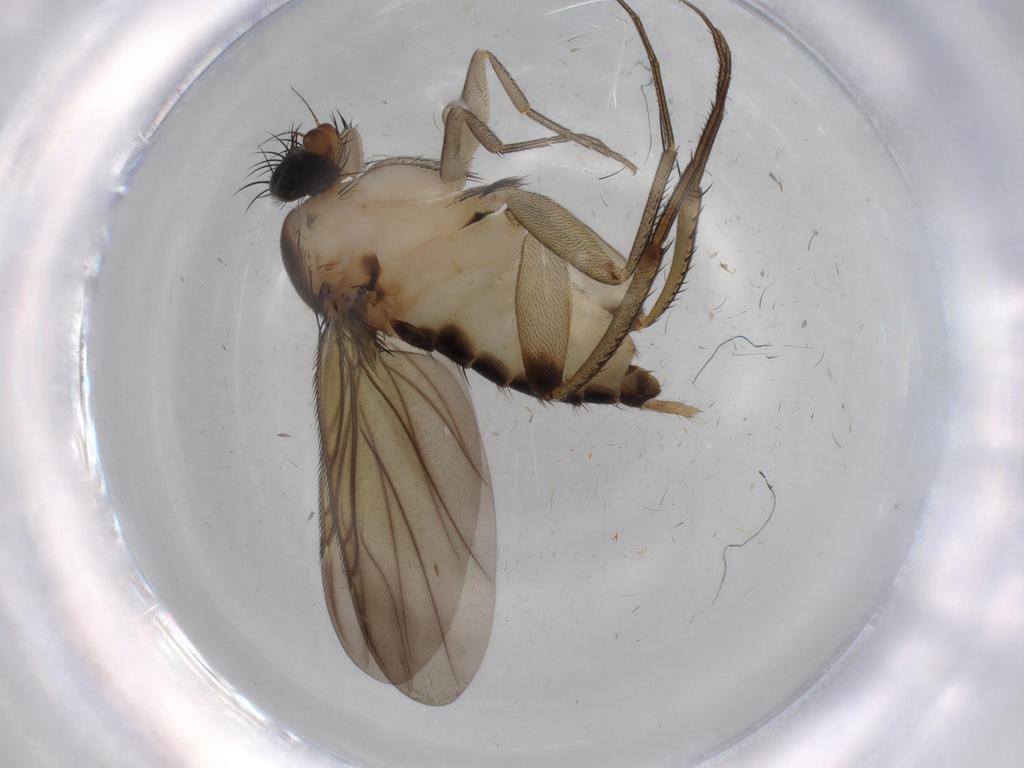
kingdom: Animalia
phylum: Arthropoda
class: Insecta
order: Diptera
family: Phoridae
